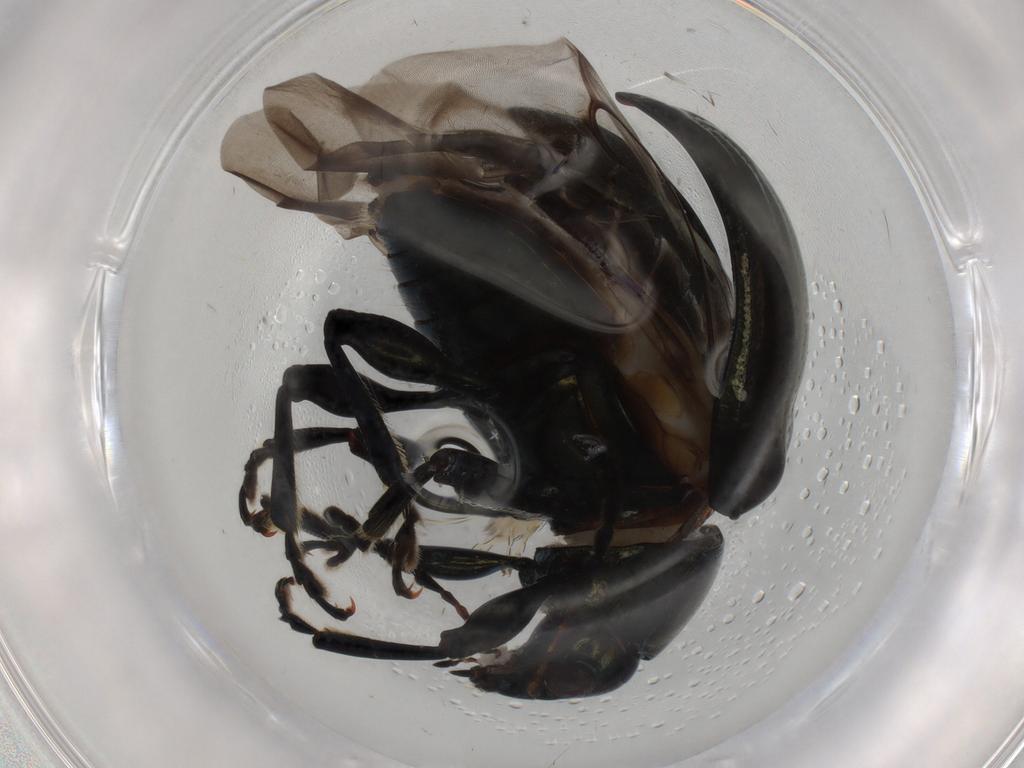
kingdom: Animalia
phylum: Arthropoda
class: Insecta
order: Coleoptera
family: Chrysomelidae
